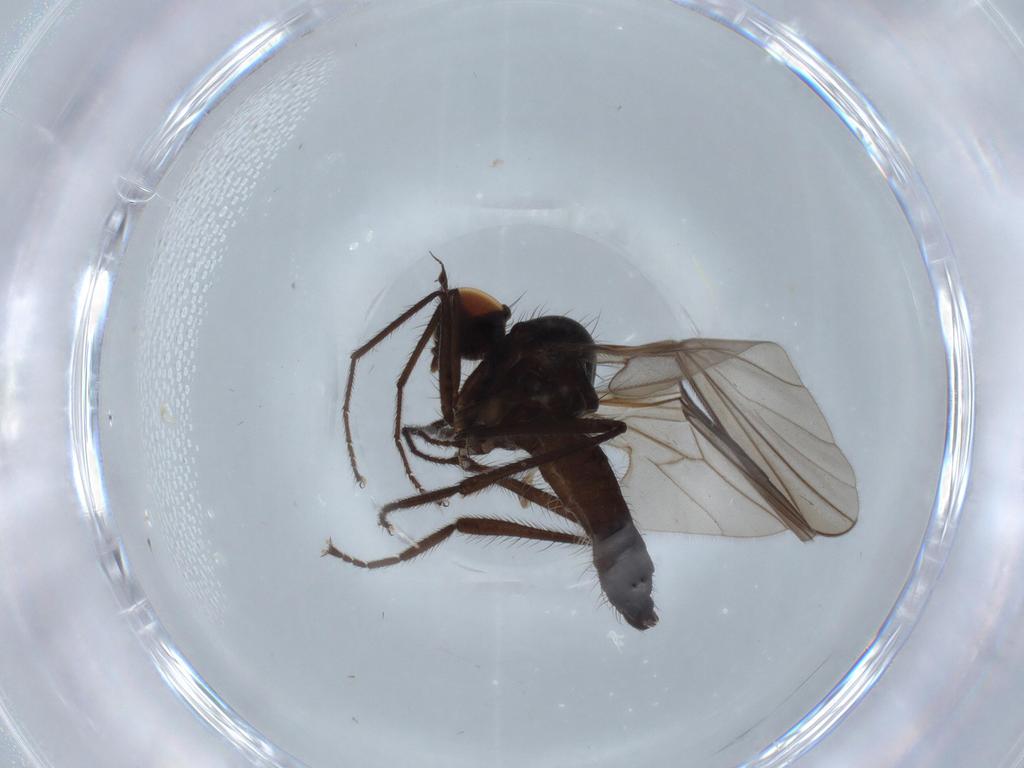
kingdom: Animalia
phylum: Arthropoda
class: Insecta
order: Diptera
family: Hybotidae
